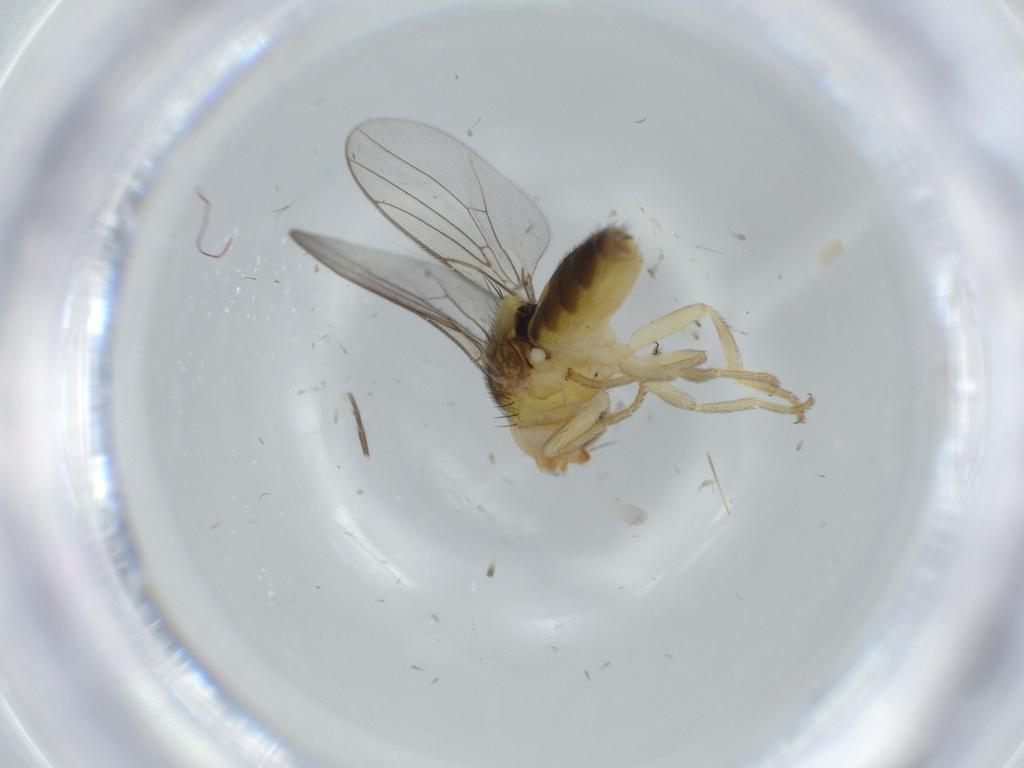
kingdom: Animalia
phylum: Arthropoda
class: Insecta
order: Diptera
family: Chloropidae
